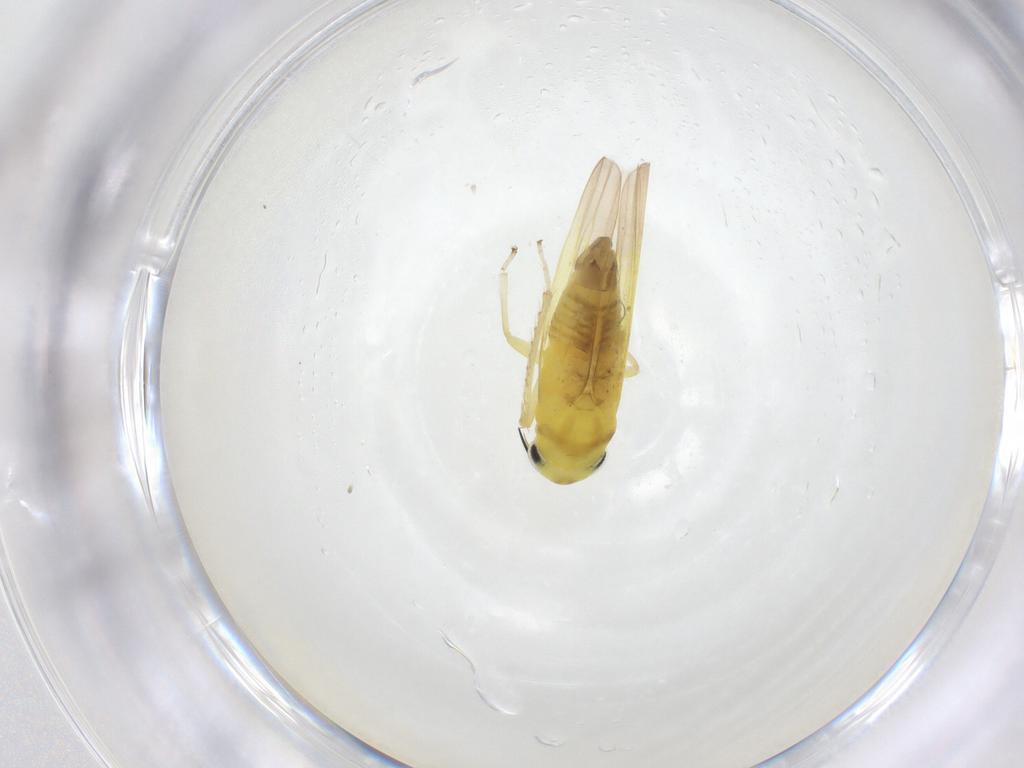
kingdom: Animalia
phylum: Arthropoda
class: Insecta
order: Hemiptera
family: Cicadellidae
